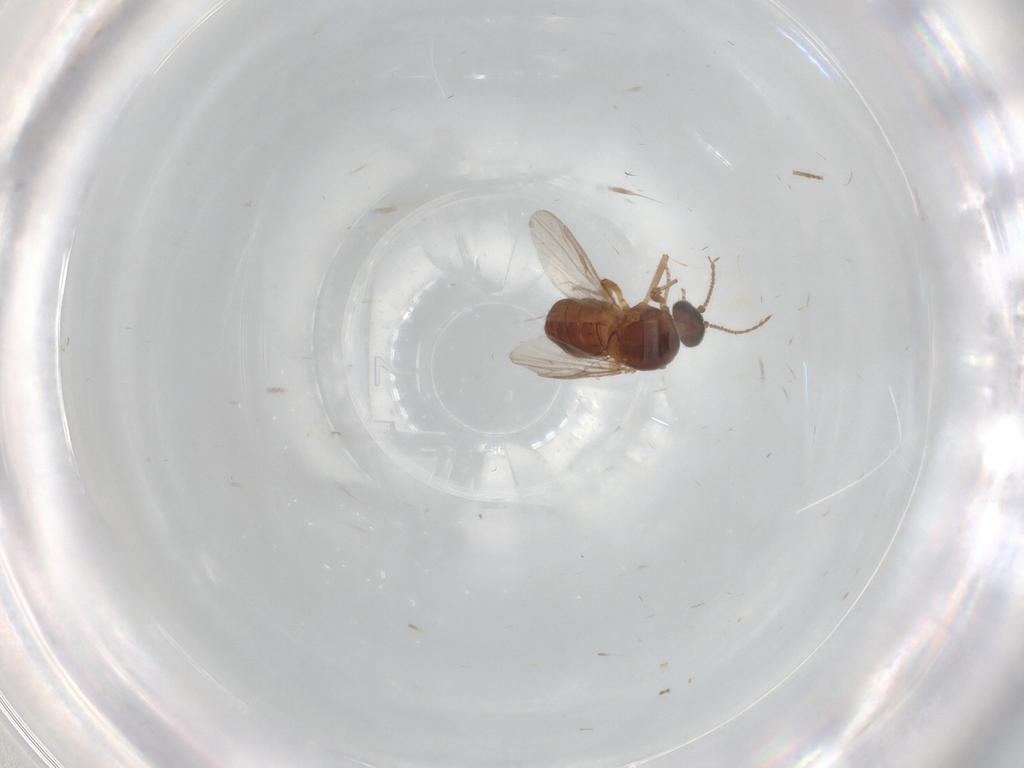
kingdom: Animalia
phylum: Arthropoda
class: Insecta
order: Diptera
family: Ceratopogonidae
